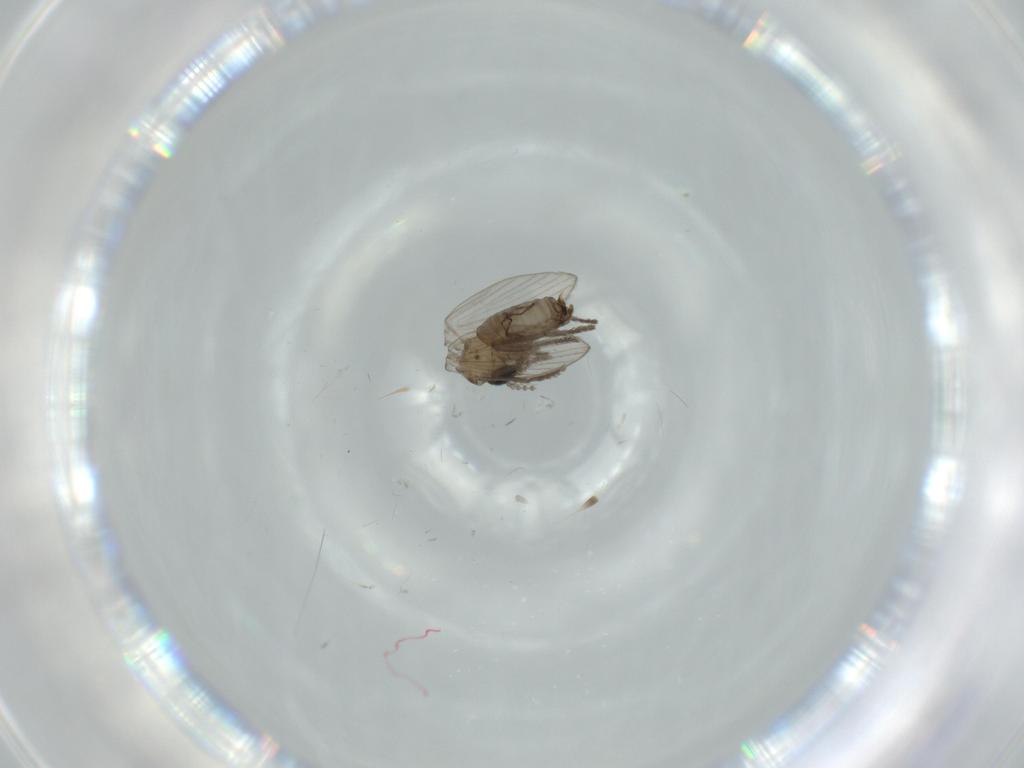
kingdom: Animalia
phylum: Arthropoda
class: Insecta
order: Diptera
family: Psychodidae
